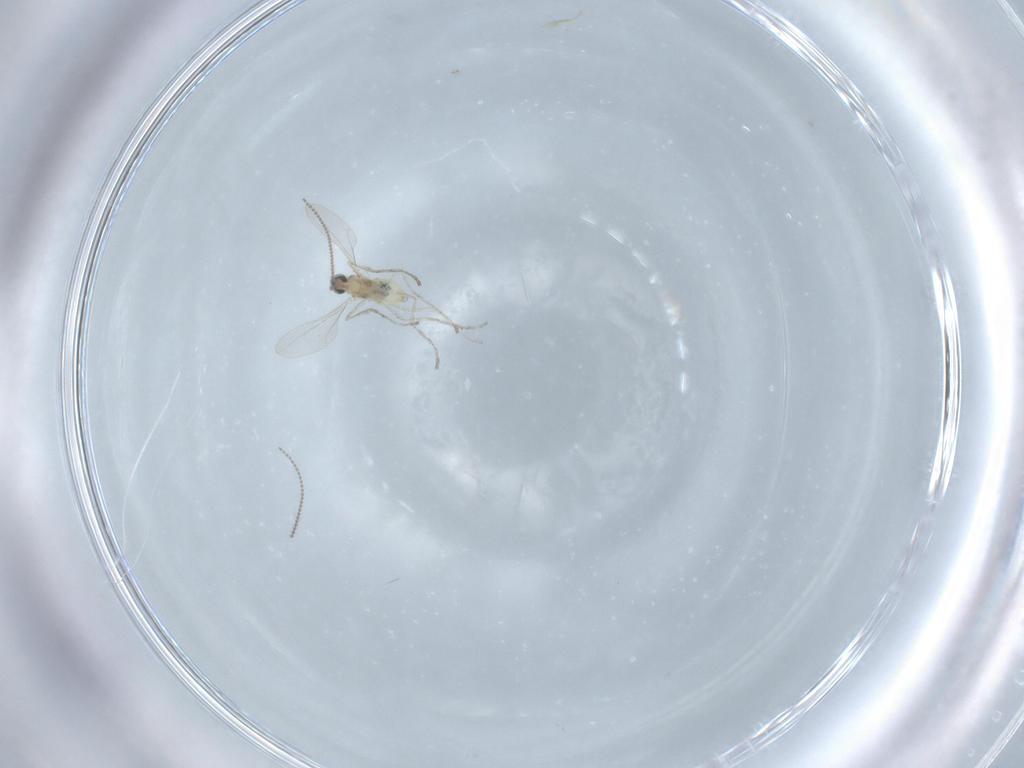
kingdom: Animalia
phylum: Arthropoda
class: Insecta
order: Diptera
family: Cecidomyiidae
